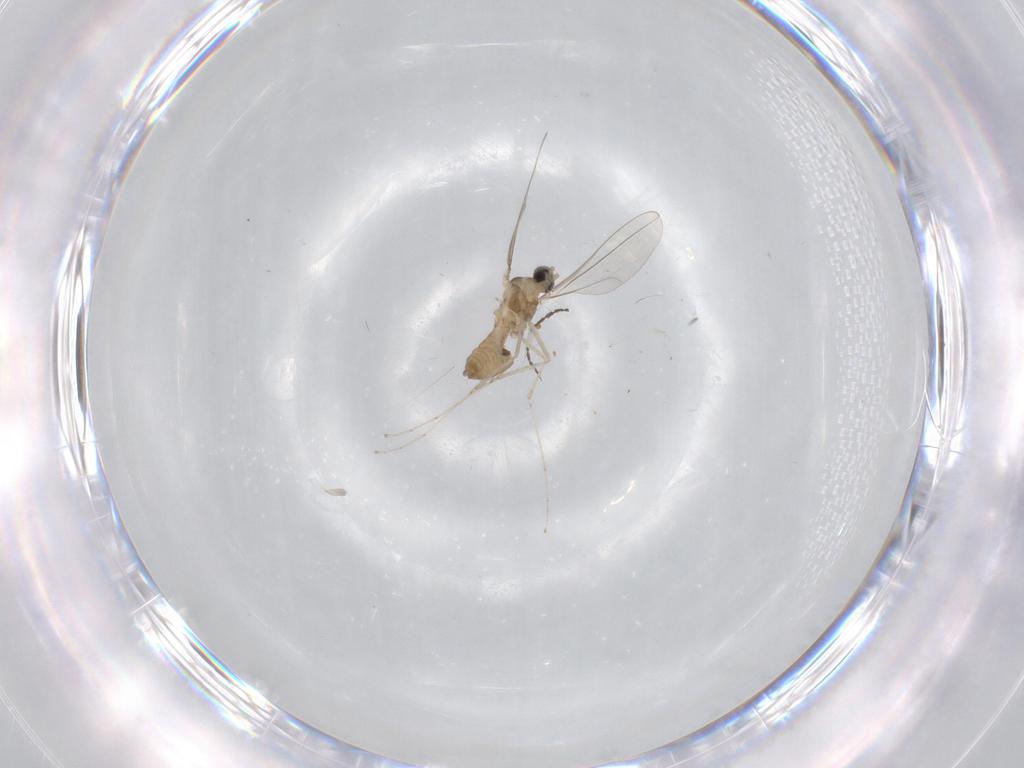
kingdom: Animalia
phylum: Arthropoda
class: Insecta
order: Diptera
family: Cecidomyiidae
